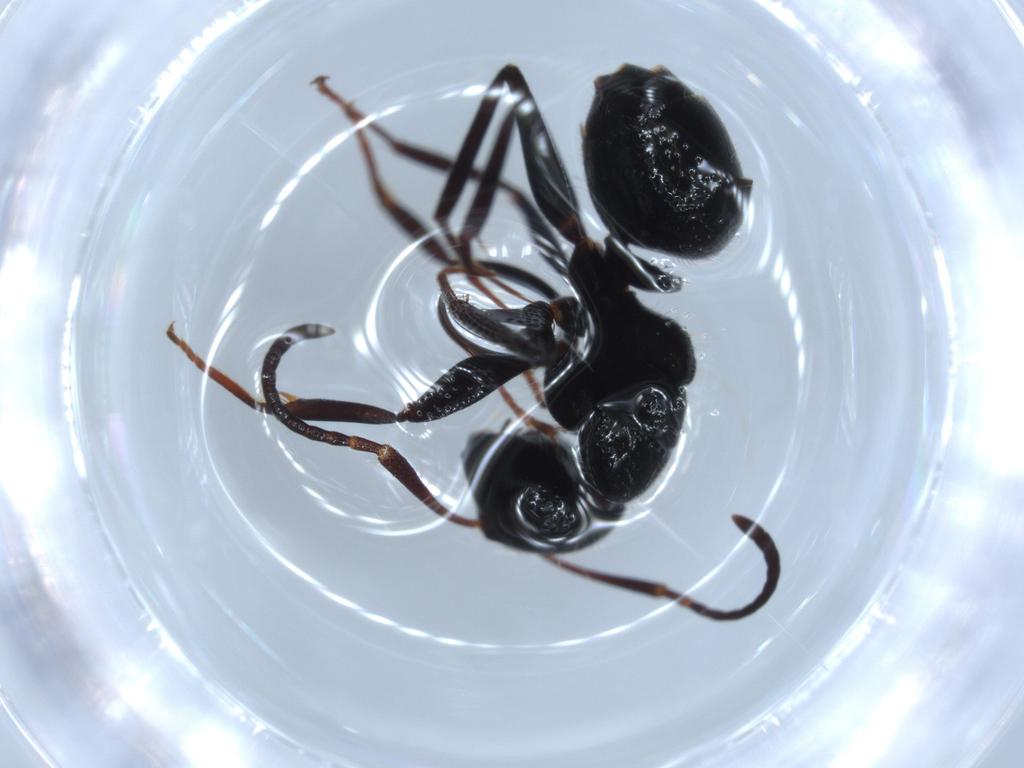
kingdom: Animalia
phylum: Arthropoda
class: Insecta
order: Hymenoptera
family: Formicidae
